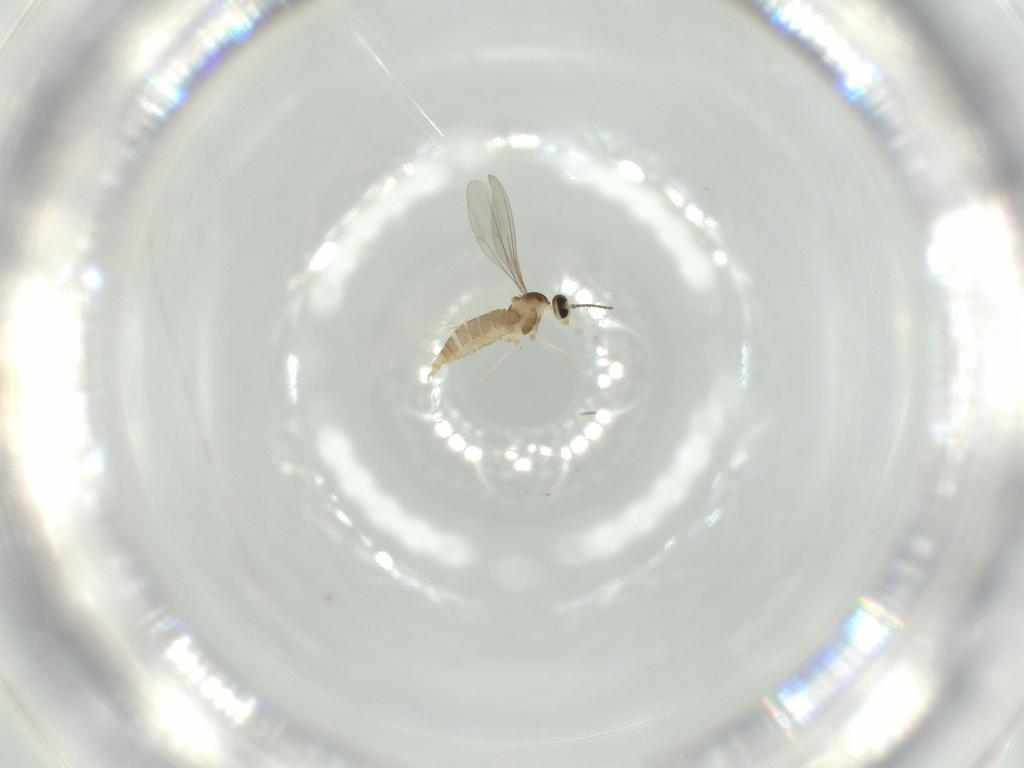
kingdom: Animalia
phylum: Arthropoda
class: Insecta
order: Diptera
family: Cecidomyiidae
